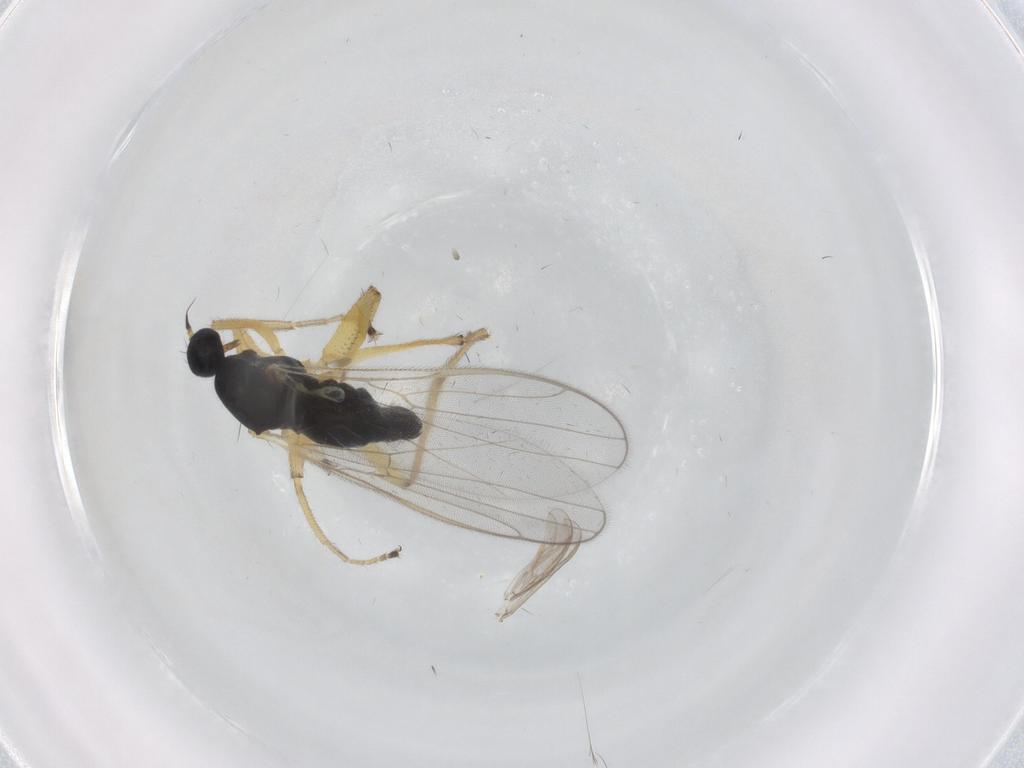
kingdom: Animalia
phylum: Arthropoda
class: Insecta
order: Diptera
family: Hybotidae
